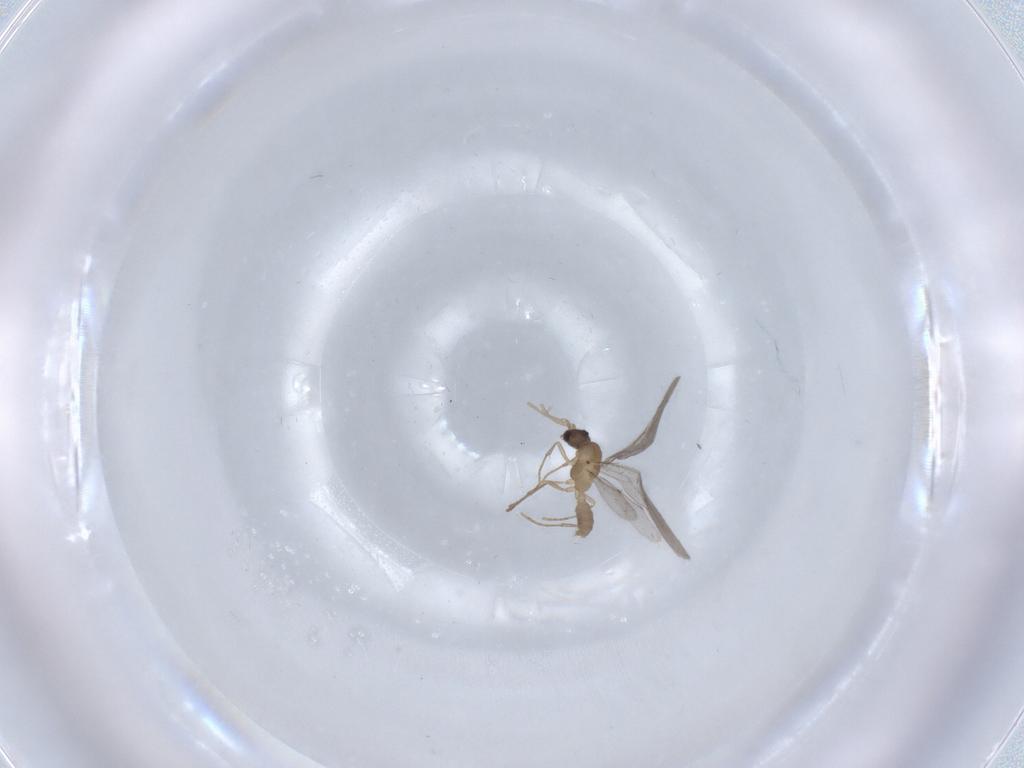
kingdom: Animalia
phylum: Arthropoda
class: Insecta
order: Hymenoptera
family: Formicidae
